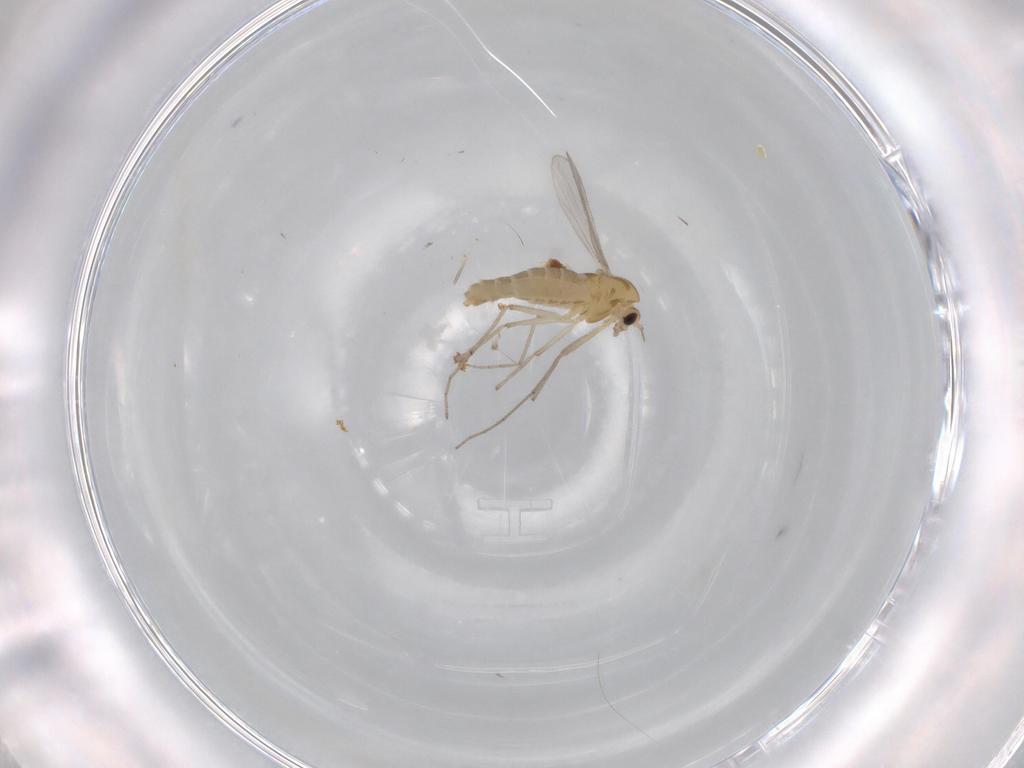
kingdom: Animalia
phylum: Arthropoda
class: Insecta
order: Diptera
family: Chironomidae
